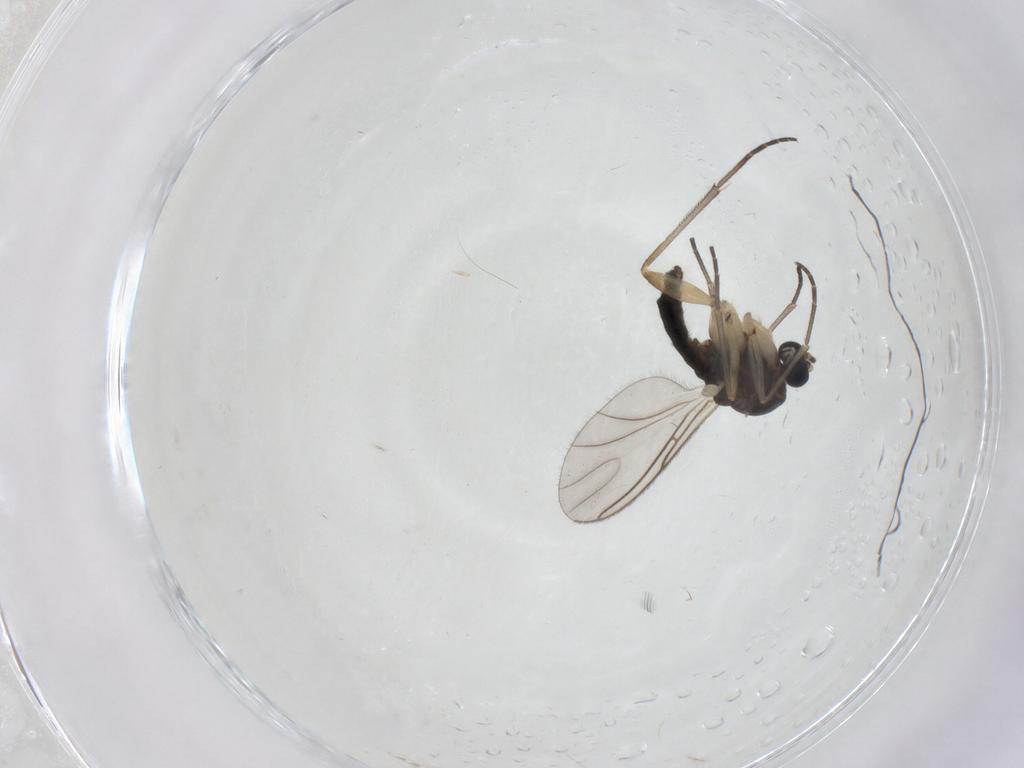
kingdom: Animalia
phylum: Arthropoda
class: Insecta
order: Diptera
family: Sciaridae
